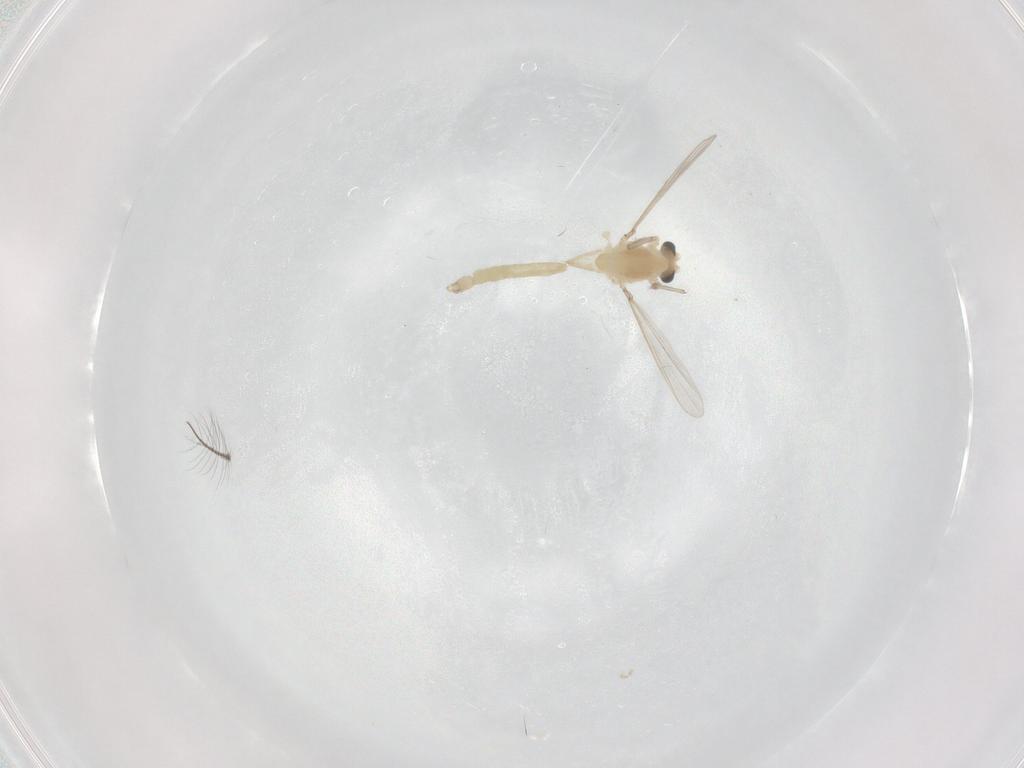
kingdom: Animalia
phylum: Arthropoda
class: Insecta
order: Diptera
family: Chironomidae
